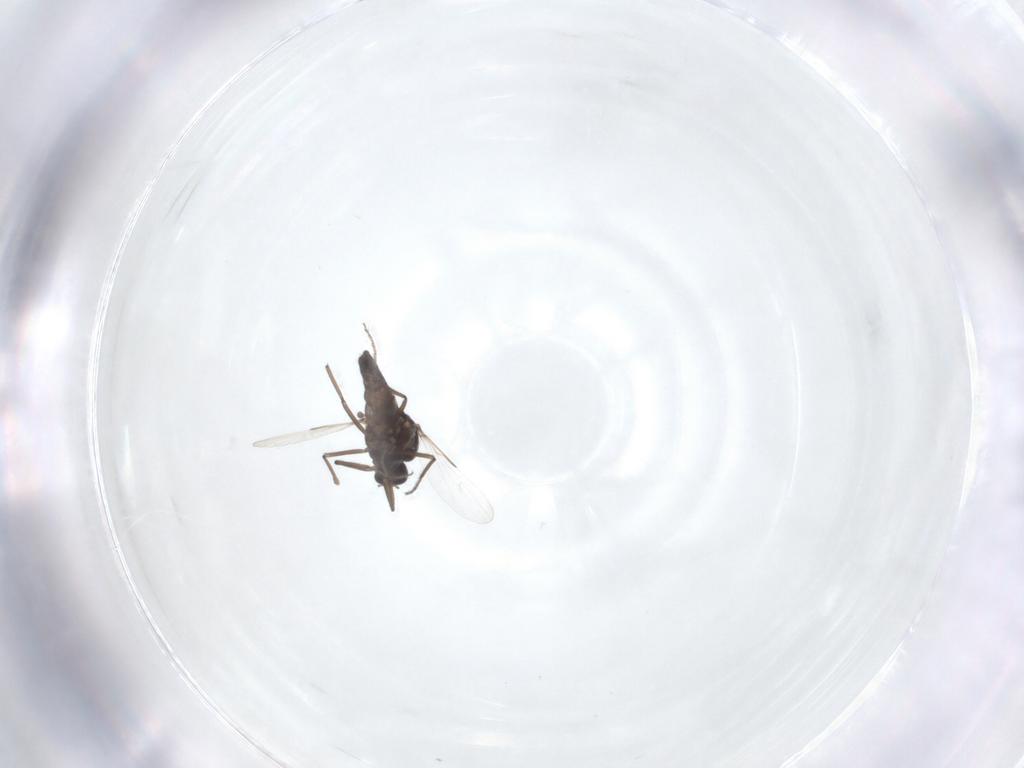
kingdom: Animalia
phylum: Arthropoda
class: Insecta
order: Diptera
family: Ceratopogonidae
